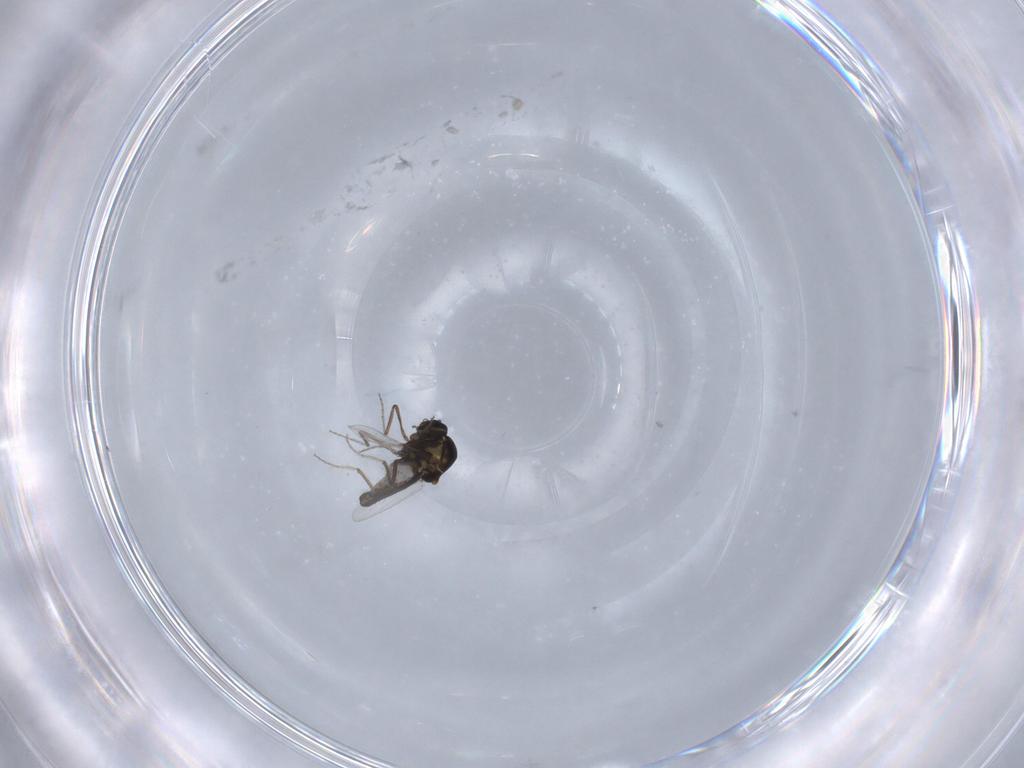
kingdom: Animalia
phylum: Arthropoda
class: Insecta
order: Diptera
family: Ceratopogonidae
